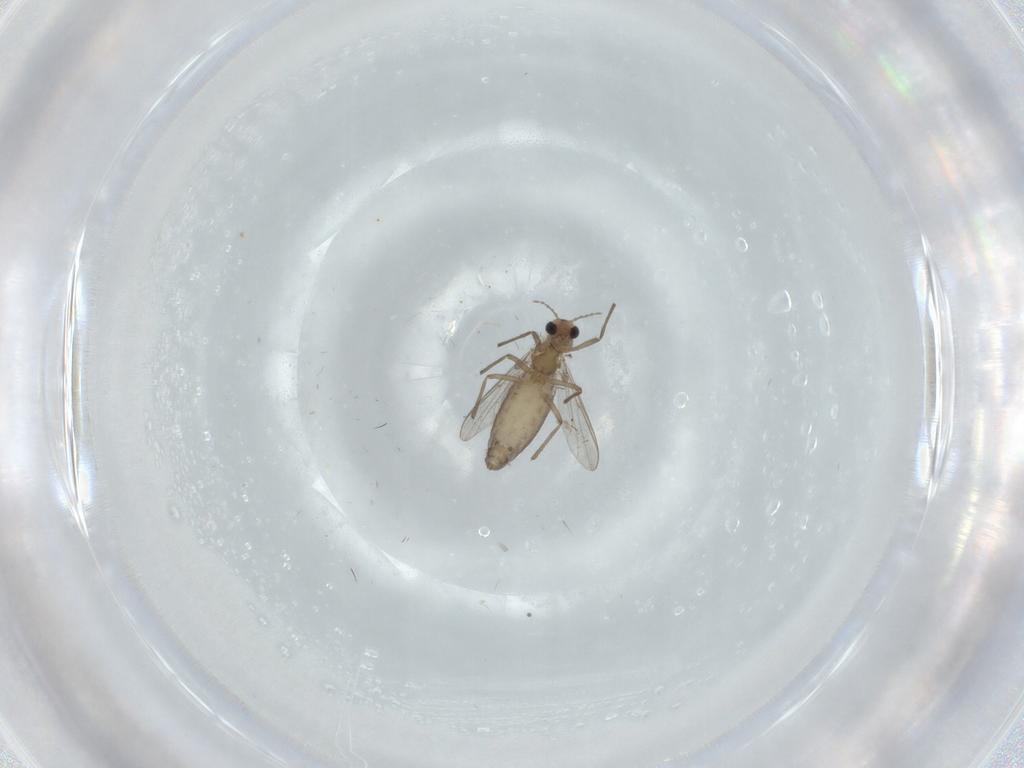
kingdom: Animalia
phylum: Arthropoda
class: Insecta
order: Diptera
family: Chironomidae
